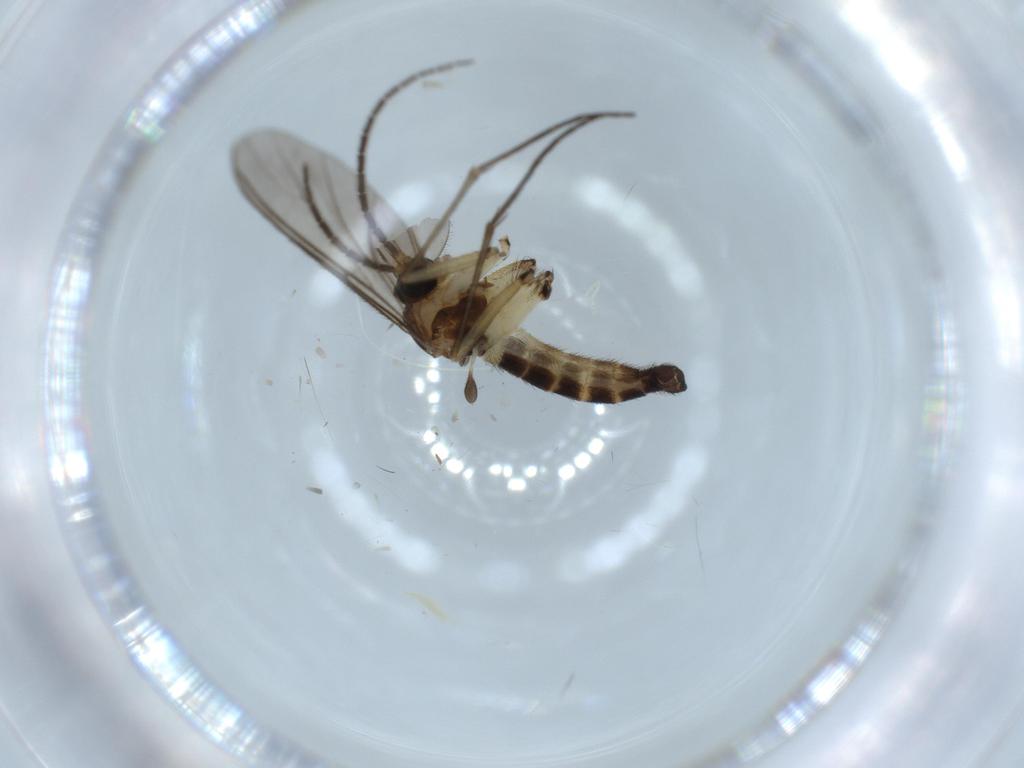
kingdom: Animalia
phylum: Arthropoda
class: Insecta
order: Diptera
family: Sciaridae
